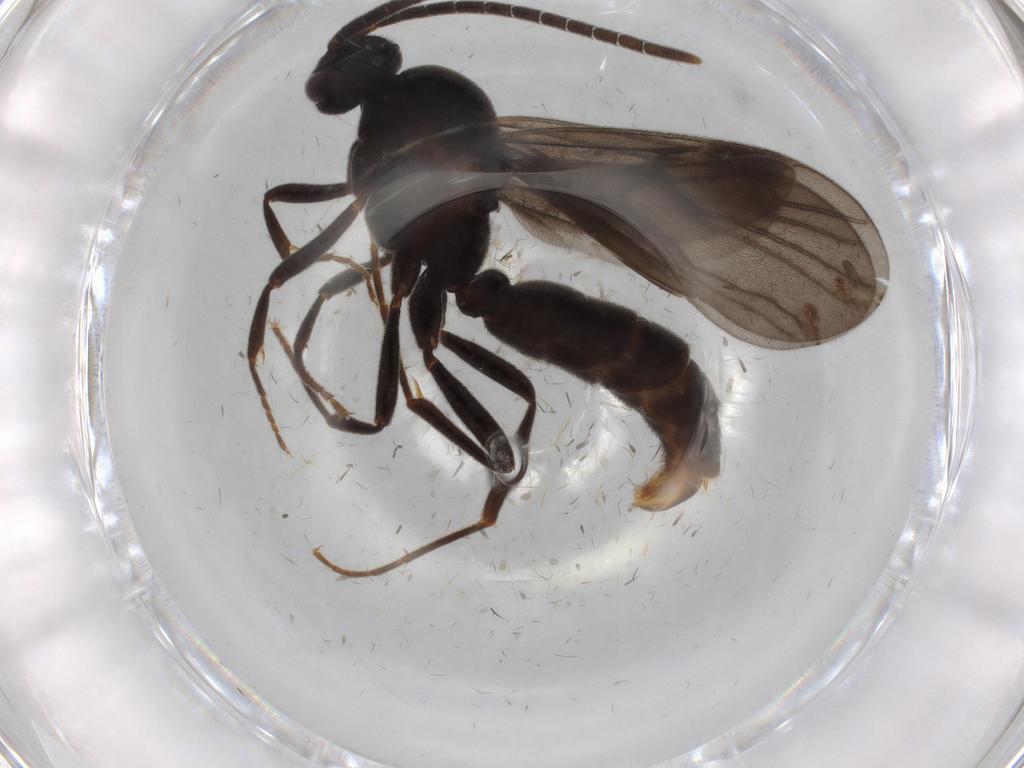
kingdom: Animalia
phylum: Arthropoda
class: Insecta
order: Hymenoptera
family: Formicidae
